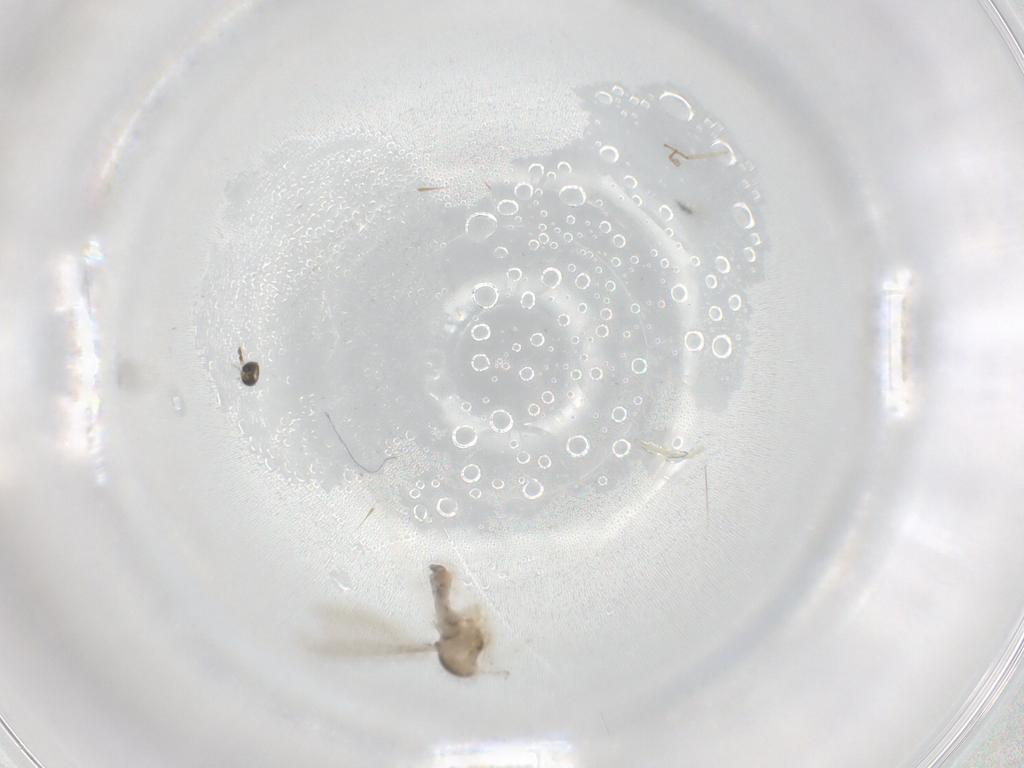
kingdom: Animalia
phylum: Arthropoda
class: Insecta
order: Diptera
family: Cecidomyiidae
